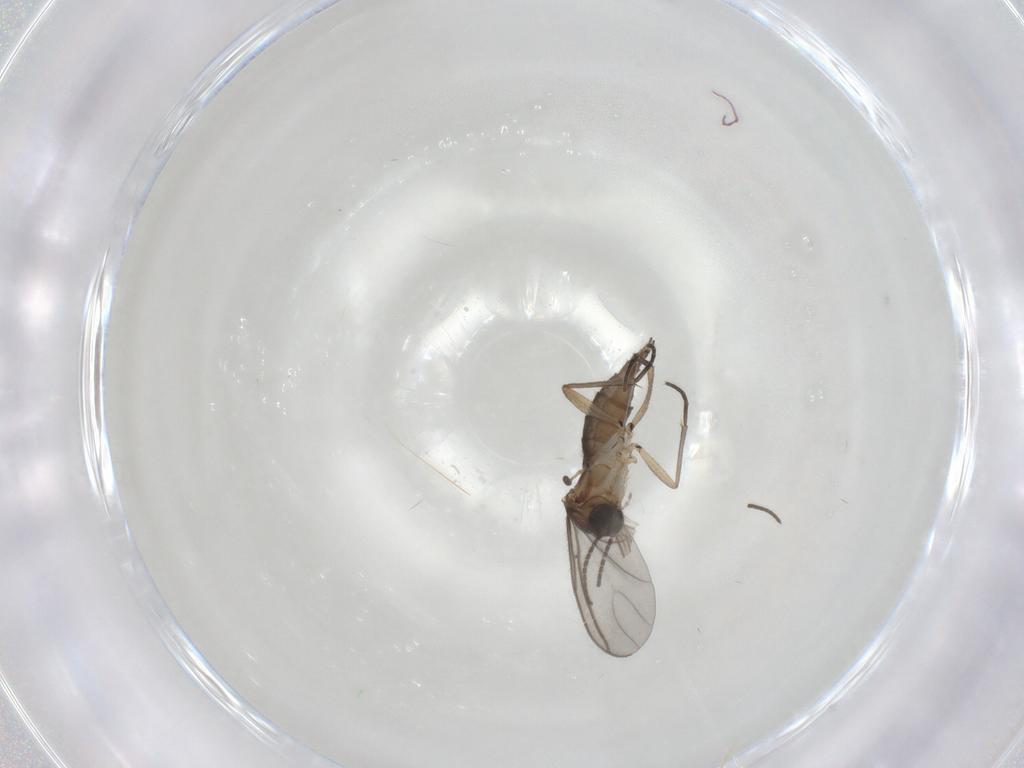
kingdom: Animalia
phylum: Arthropoda
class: Insecta
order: Diptera
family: Sciaridae
